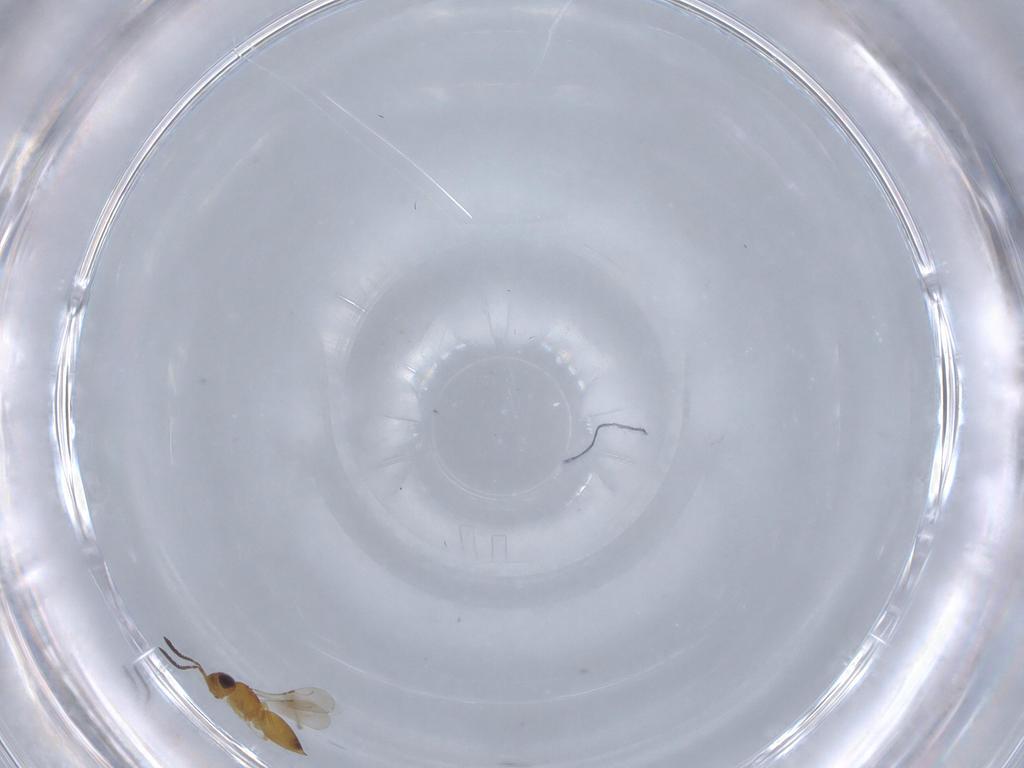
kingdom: Animalia
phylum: Arthropoda
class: Insecta
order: Hymenoptera
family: Ceraphronidae
